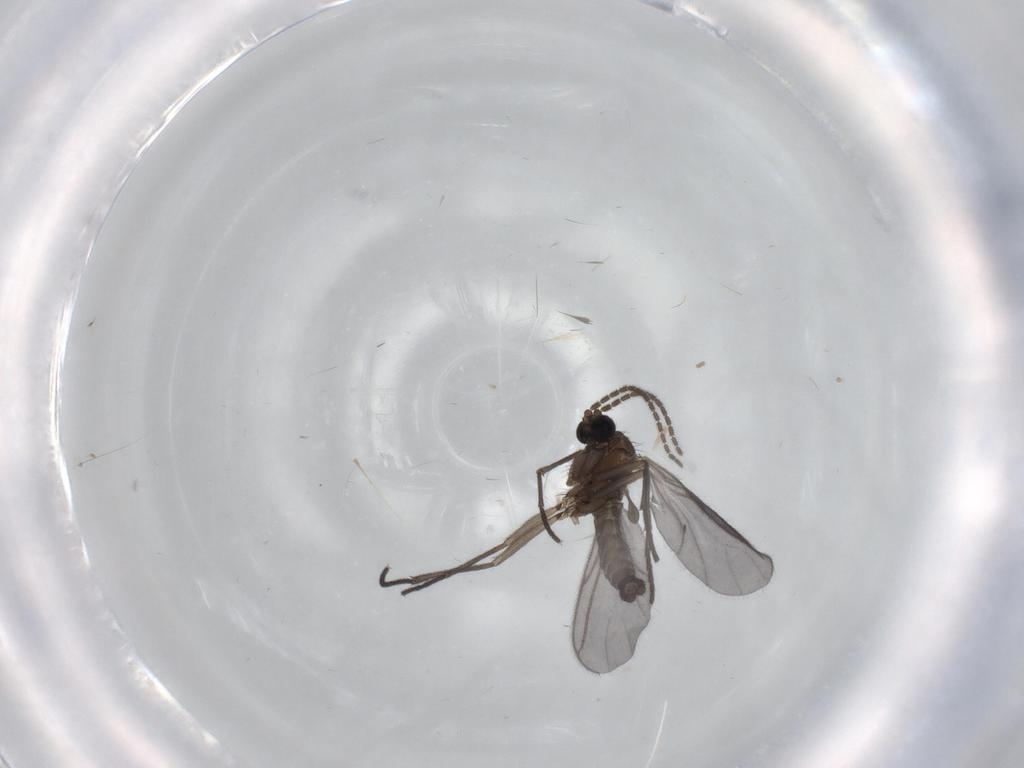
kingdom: Animalia
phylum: Arthropoda
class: Insecta
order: Diptera
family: Sciaridae
